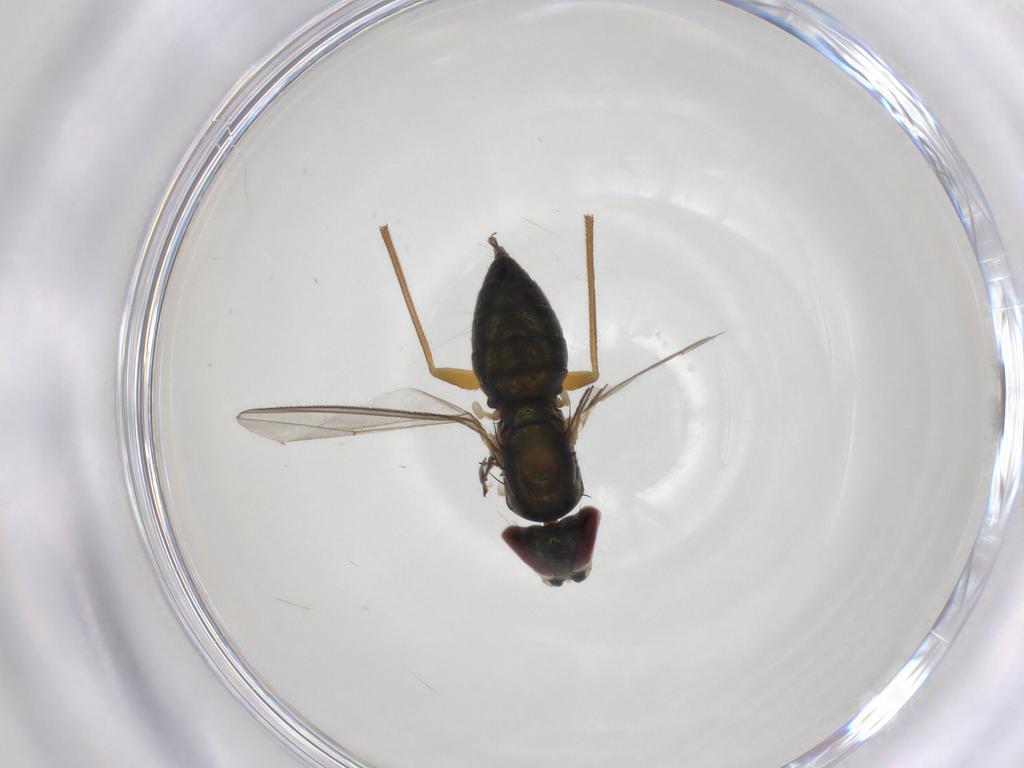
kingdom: Animalia
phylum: Arthropoda
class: Insecta
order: Diptera
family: Dolichopodidae
